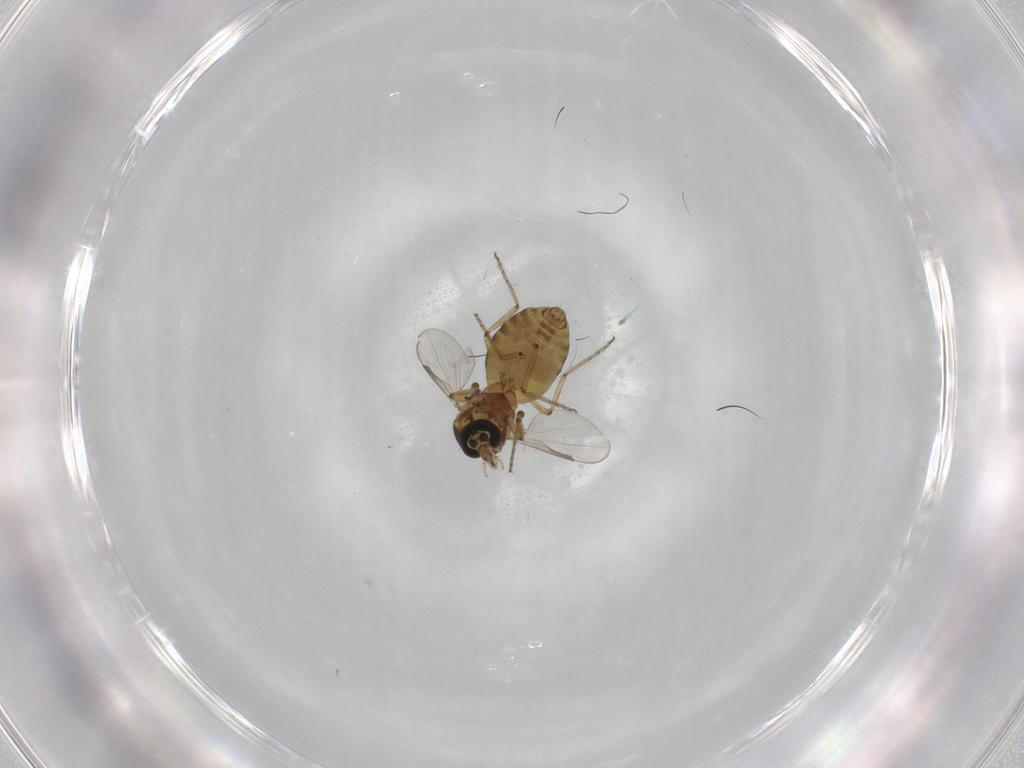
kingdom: Animalia
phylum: Arthropoda
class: Insecta
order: Diptera
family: Ceratopogonidae
